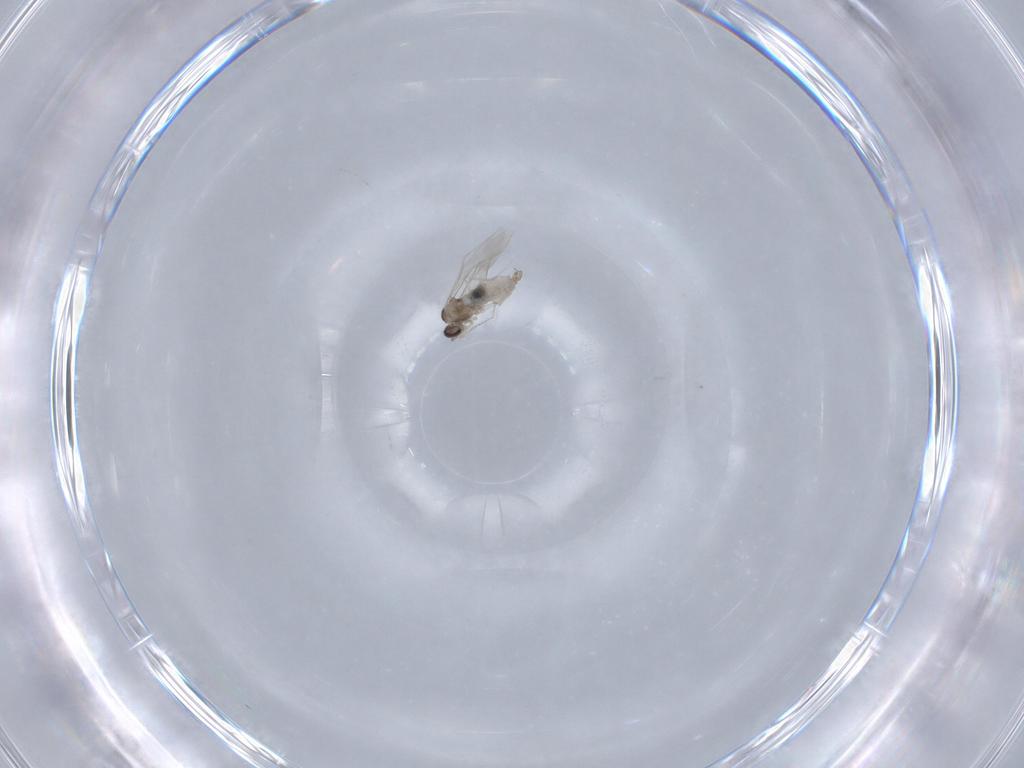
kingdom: Animalia
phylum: Arthropoda
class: Insecta
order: Diptera
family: Cecidomyiidae
